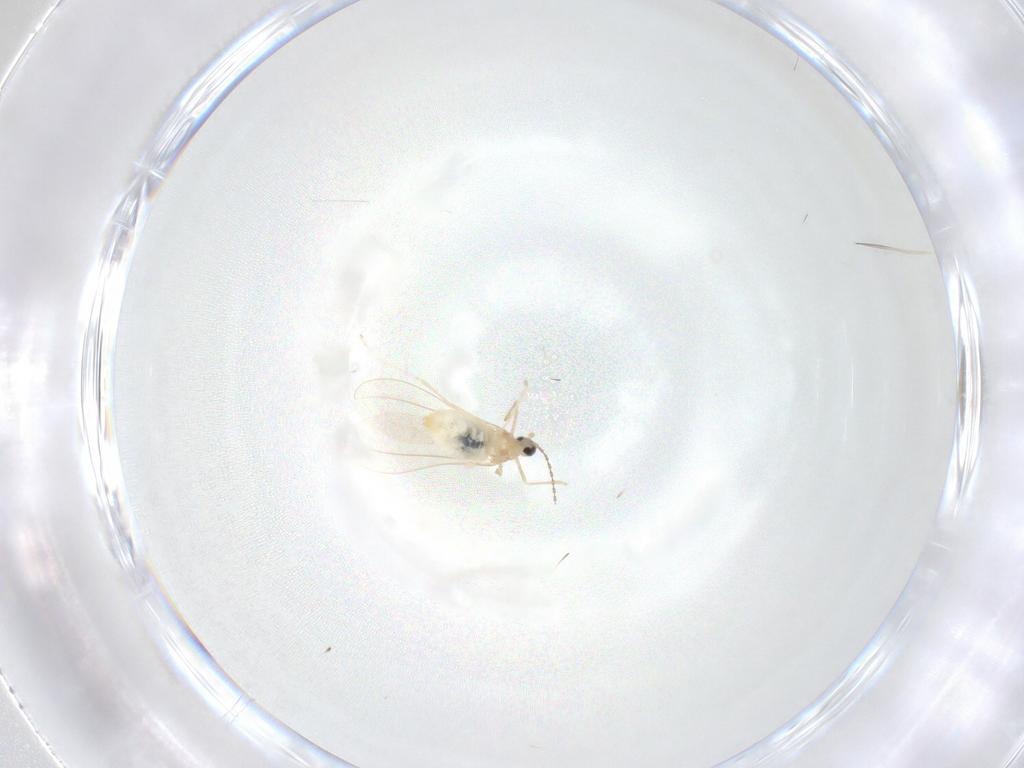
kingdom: Animalia
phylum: Arthropoda
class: Insecta
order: Diptera
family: Cecidomyiidae
